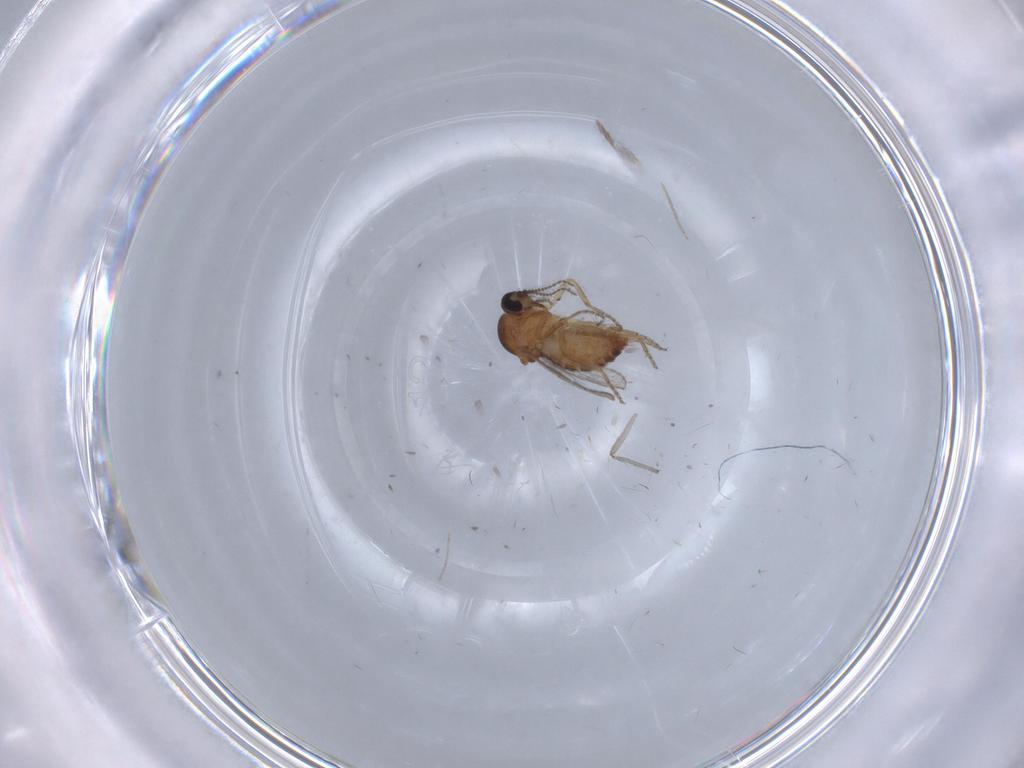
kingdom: Animalia
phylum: Arthropoda
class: Insecta
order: Diptera
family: Ceratopogonidae
